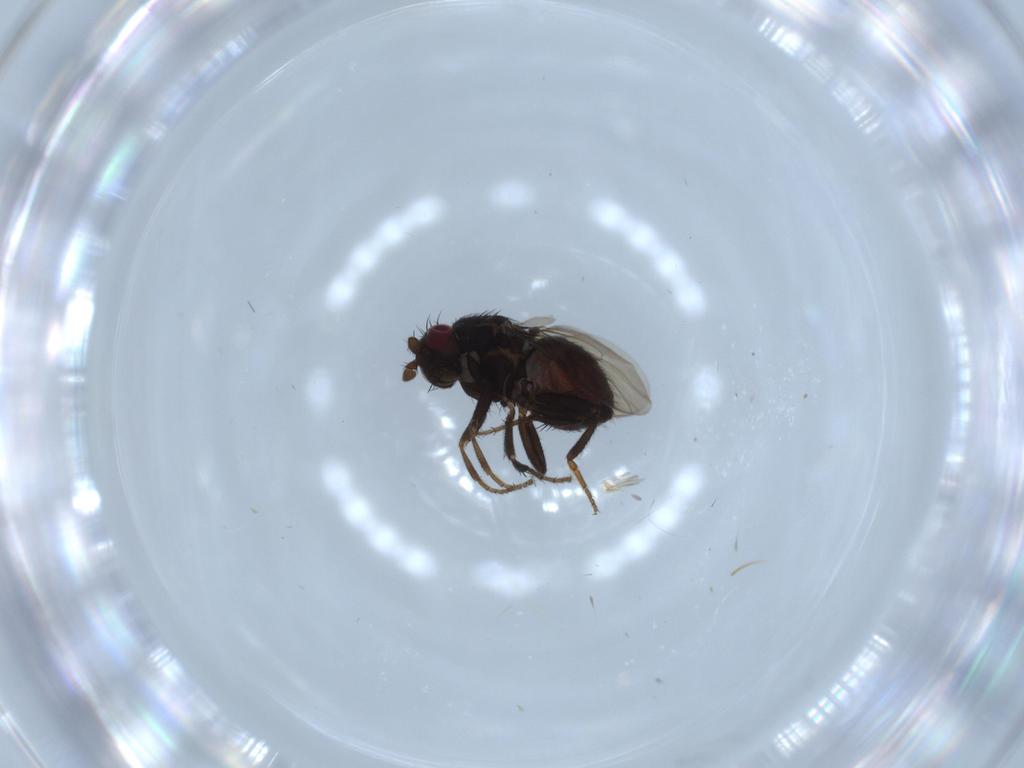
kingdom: Animalia
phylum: Arthropoda
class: Insecta
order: Diptera
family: Sphaeroceridae
